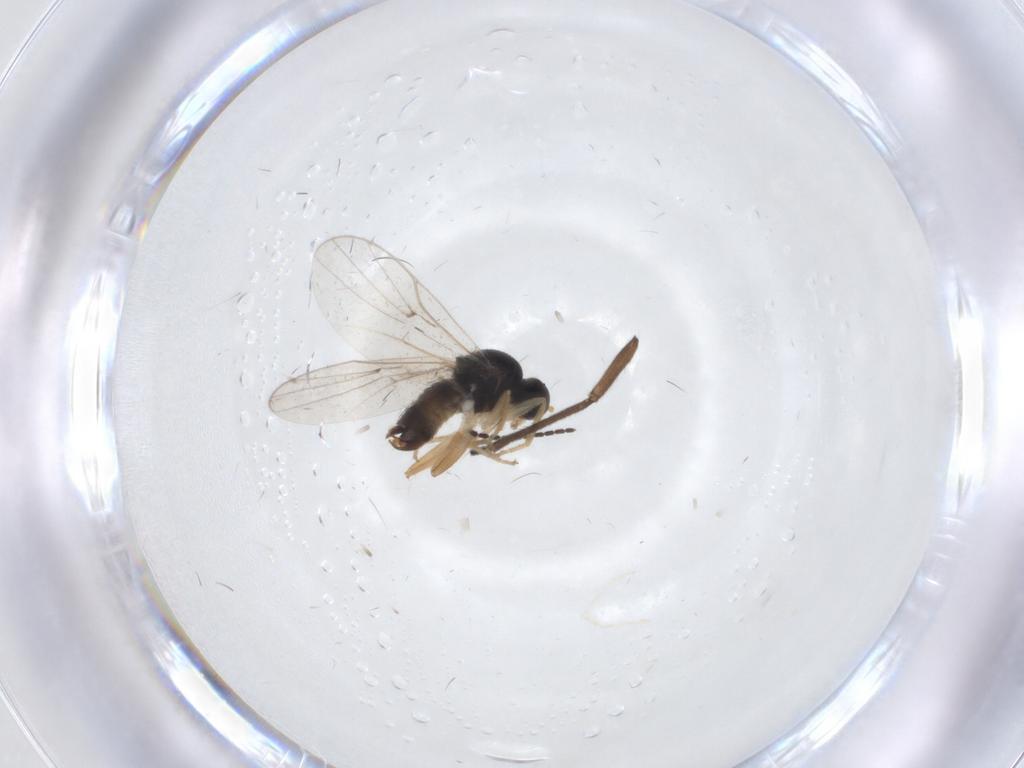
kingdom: Animalia
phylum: Arthropoda
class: Insecta
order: Diptera
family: Hybotidae
